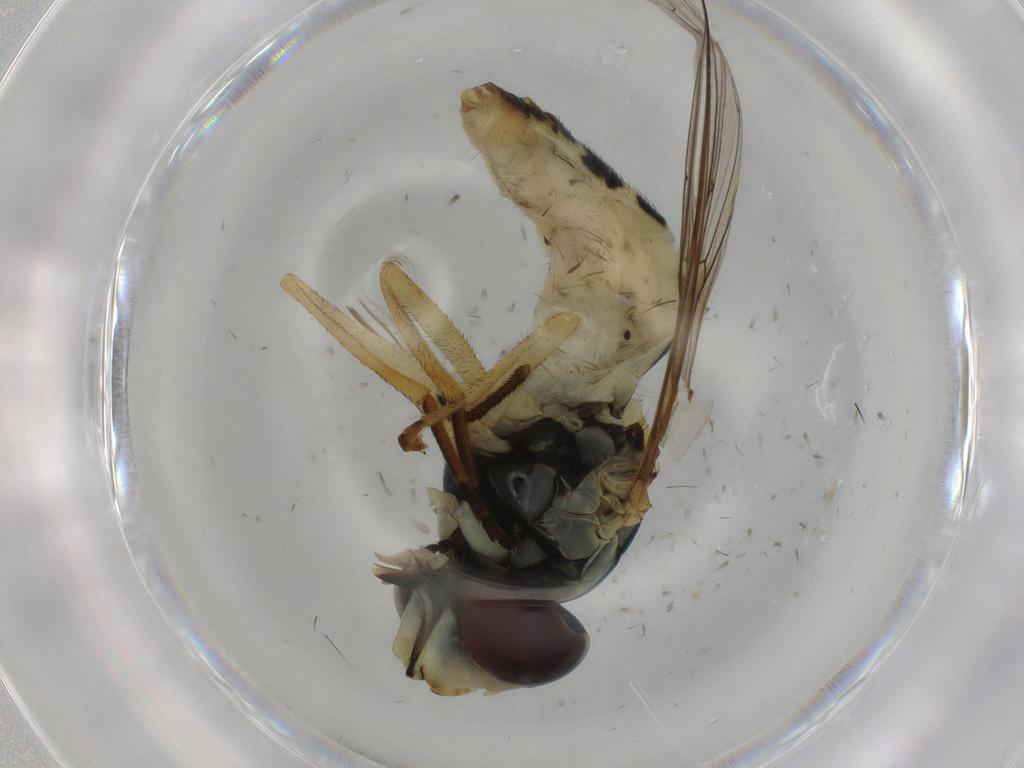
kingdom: Animalia
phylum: Arthropoda
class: Insecta
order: Diptera
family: Syrphidae
